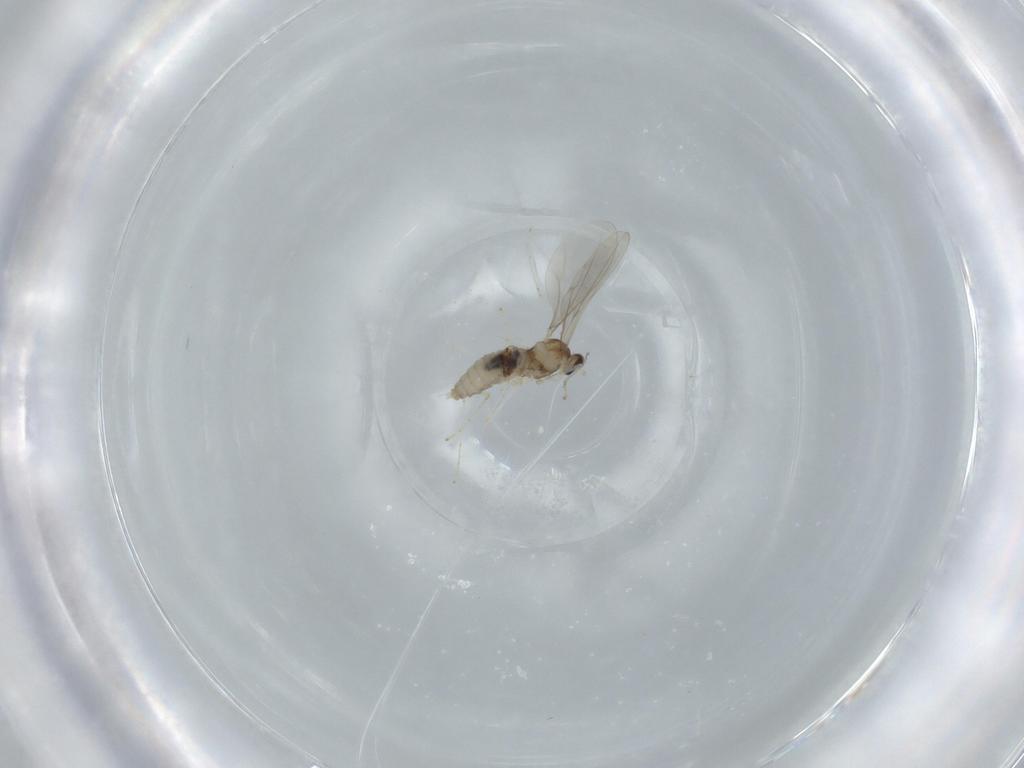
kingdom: Animalia
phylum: Arthropoda
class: Insecta
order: Diptera
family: Cecidomyiidae
